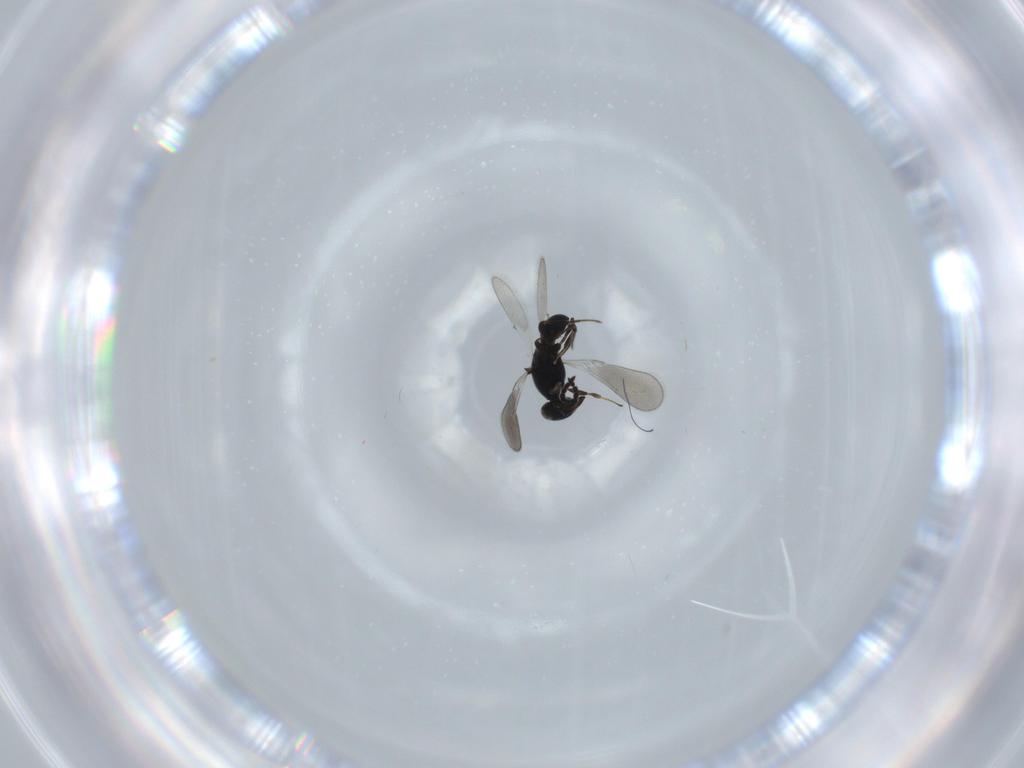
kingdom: Animalia
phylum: Arthropoda
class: Insecta
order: Hymenoptera
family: Platygastridae
